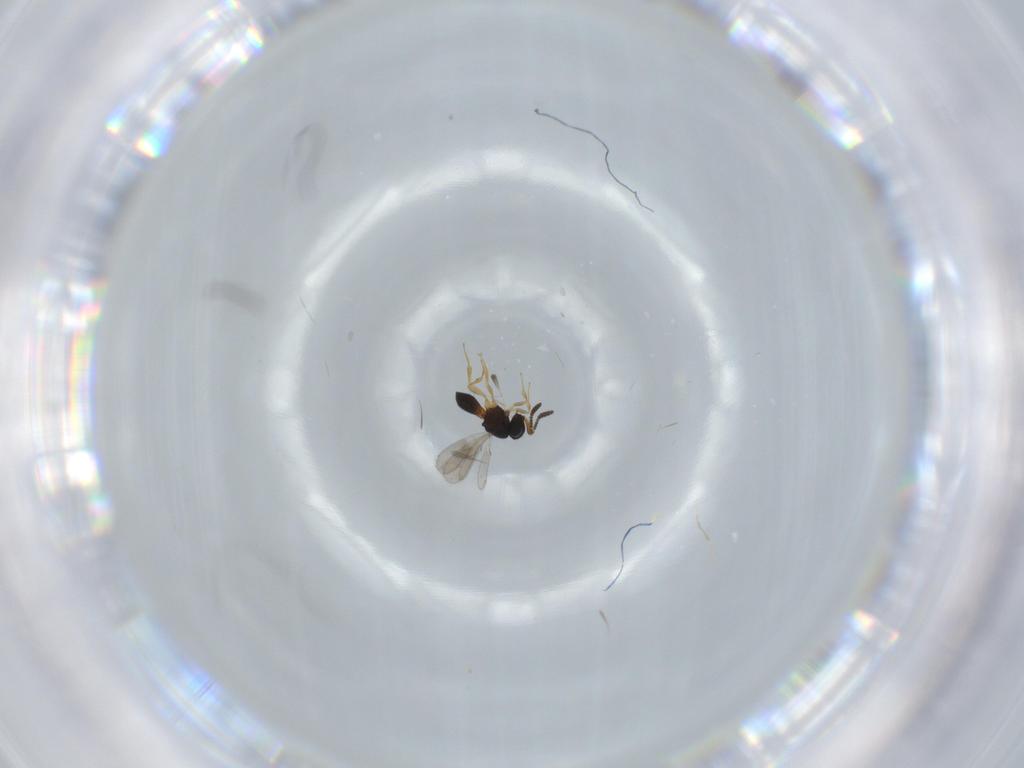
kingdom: Animalia
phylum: Arthropoda
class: Insecta
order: Hymenoptera
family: Scelionidae
